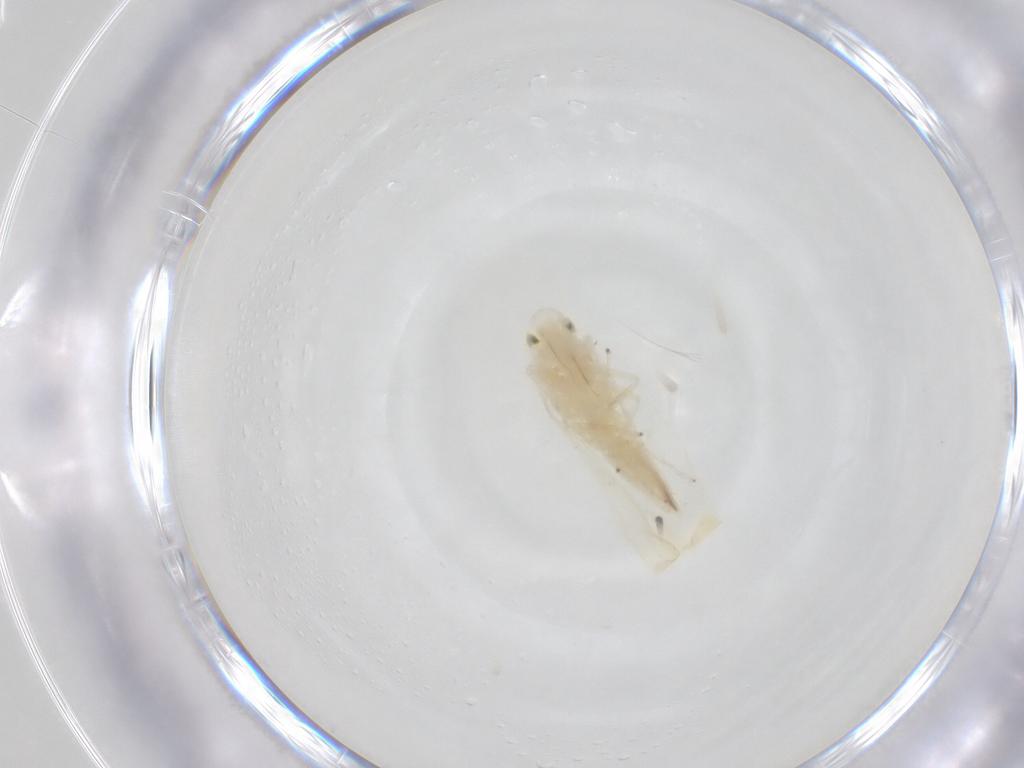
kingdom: Animalia
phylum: Arthropoda
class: Insecta
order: Hemiptera
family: Cicadellidae
